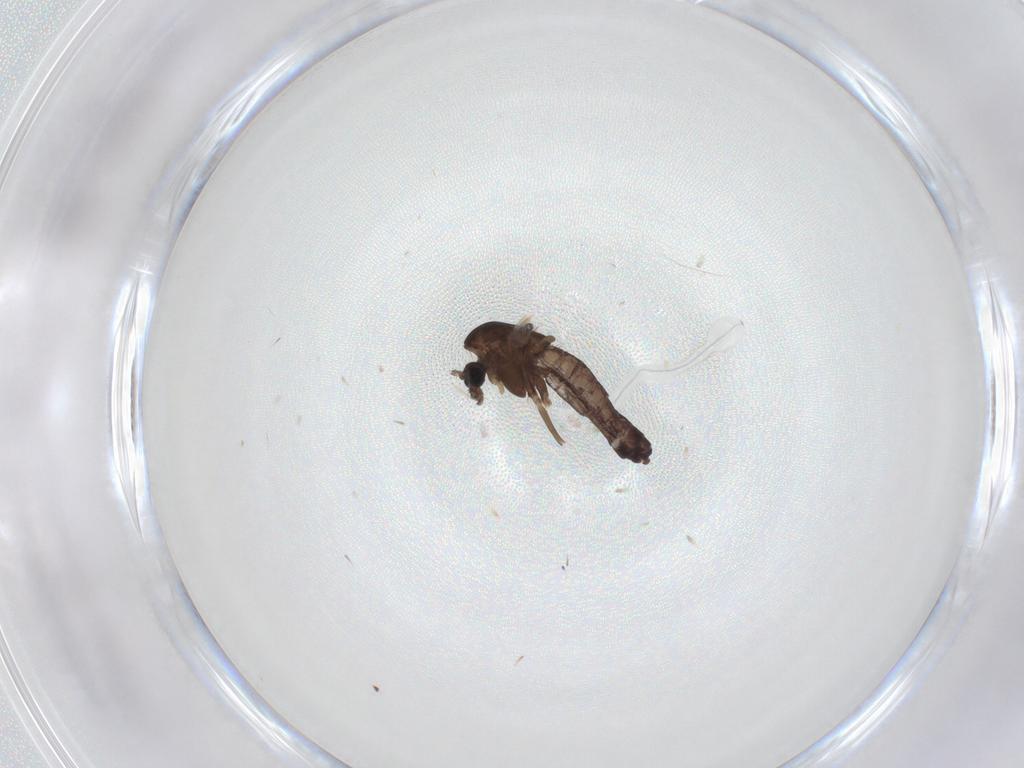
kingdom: Animalia
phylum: Arthropoda
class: Insecta
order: Diptera
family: Chironomidae
